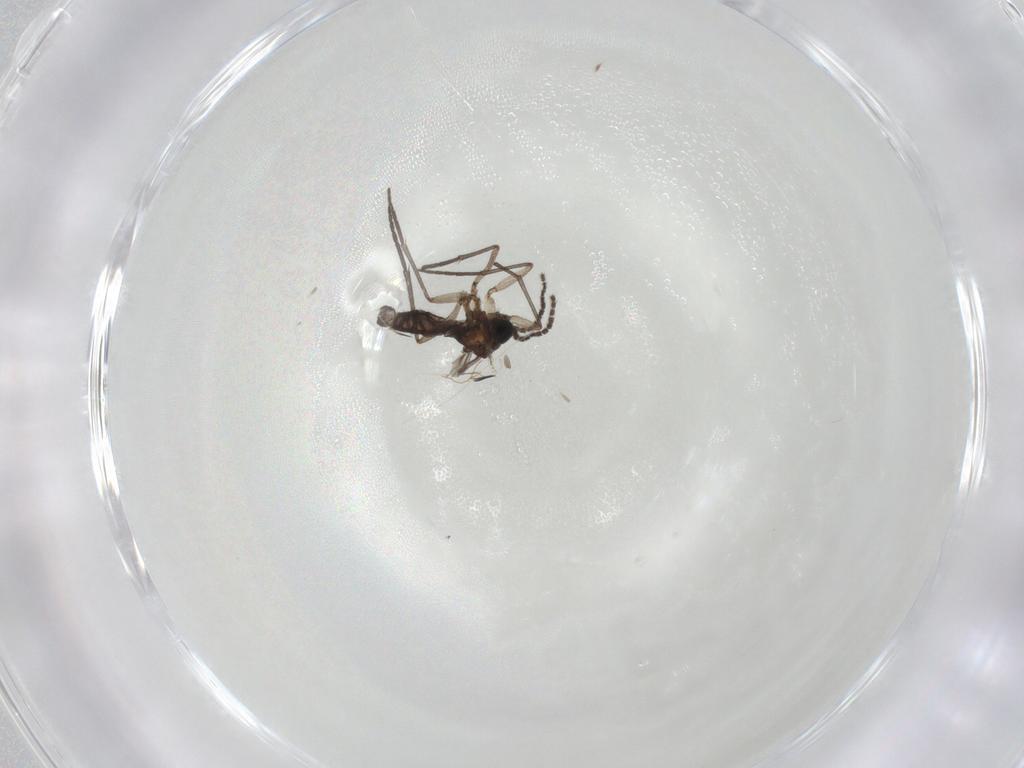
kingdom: Animalia
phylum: Arthropoda
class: Insecta
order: Diptera
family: Sciaridae
